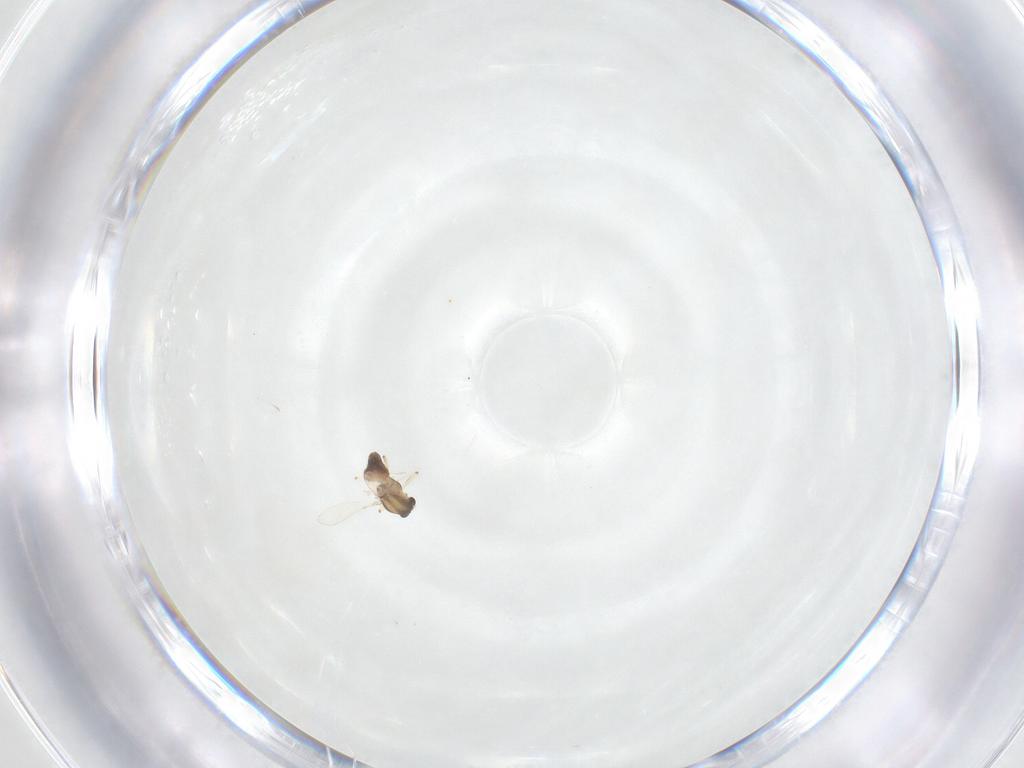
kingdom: Animalia
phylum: Arthropoda
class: Insecta
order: Diptera
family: Chironomidae
